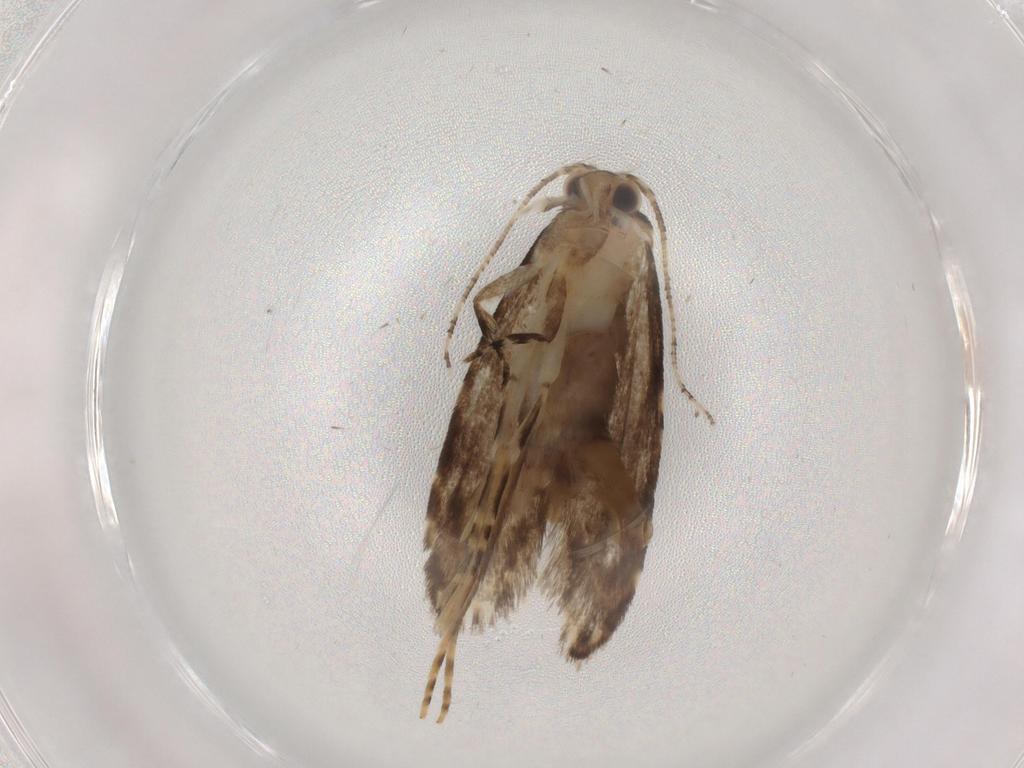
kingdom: Animalia
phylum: Arthropoda
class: Insecta
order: Lepidoptera
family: Tineidae
